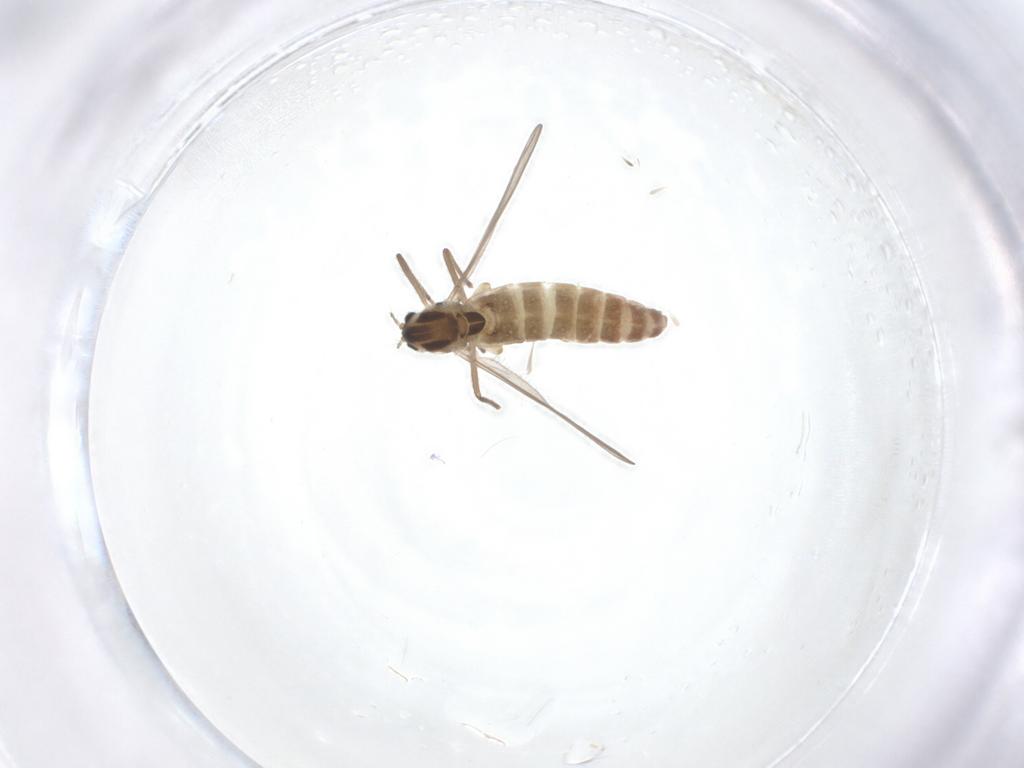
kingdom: Animalia
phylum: Arthropoda
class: Insecta
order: Diptera
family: Chironomidae
